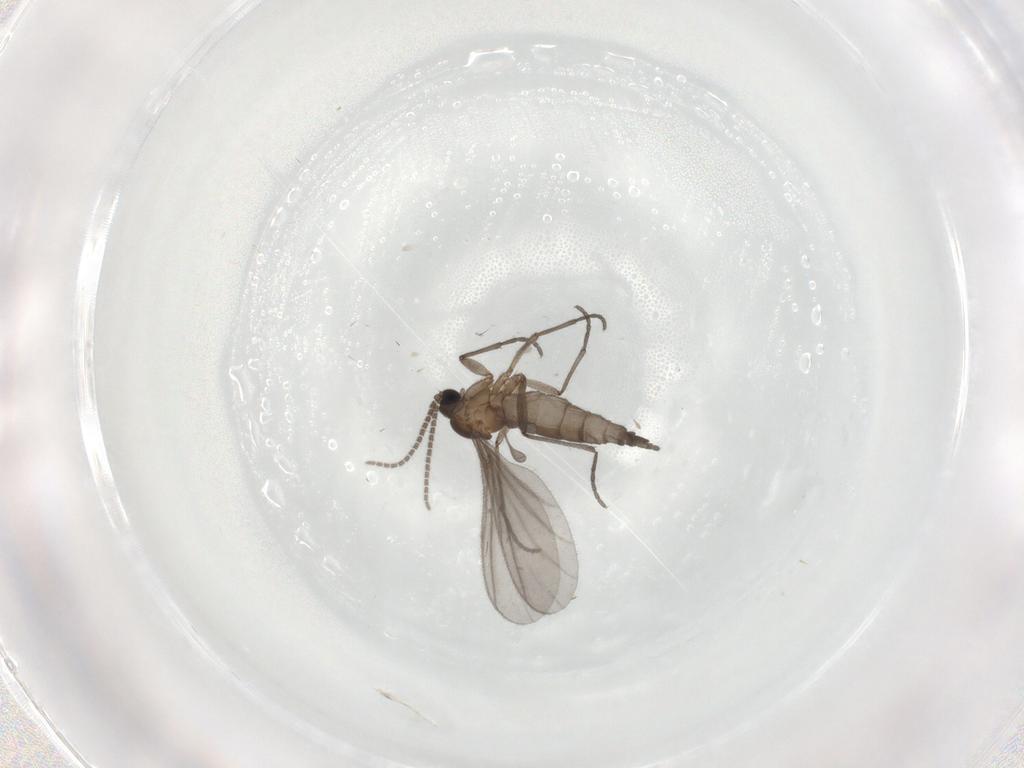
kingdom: Animalia
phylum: Arthropoda
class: Insecta
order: Diptera
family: Sciaridae
